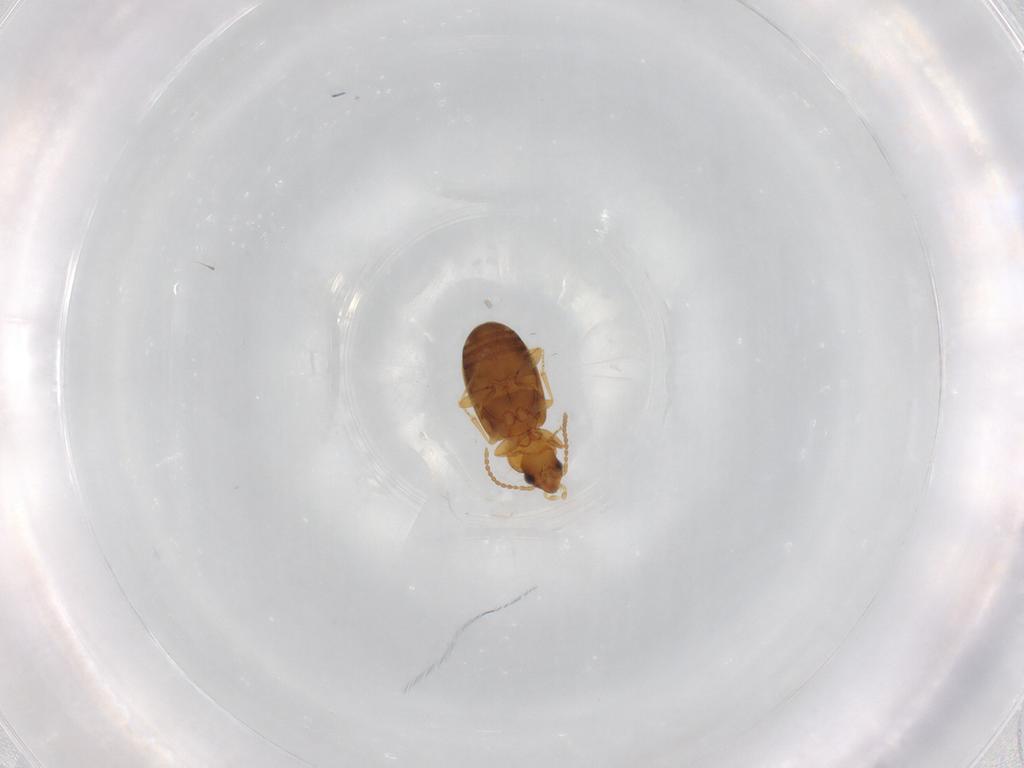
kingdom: Animalia
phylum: Arthropoda
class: Insecta
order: Coleoptera
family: Carabidae
